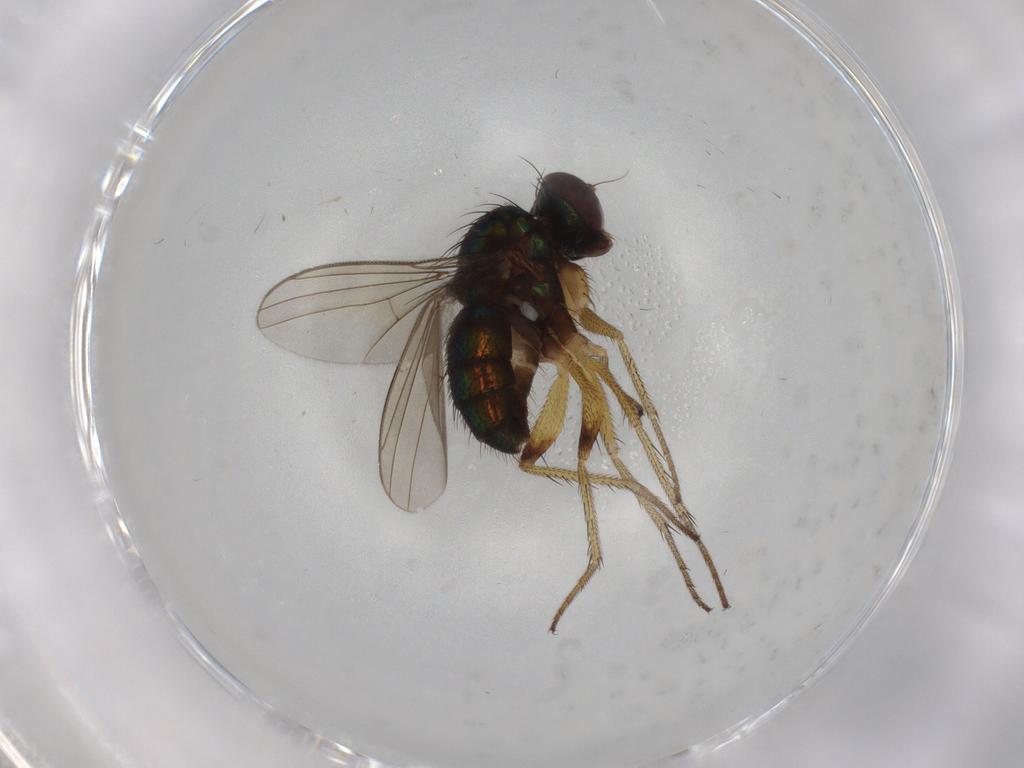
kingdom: Animalia
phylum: Arthropoda
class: Insecta
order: Diptera
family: Dolichopodidae
